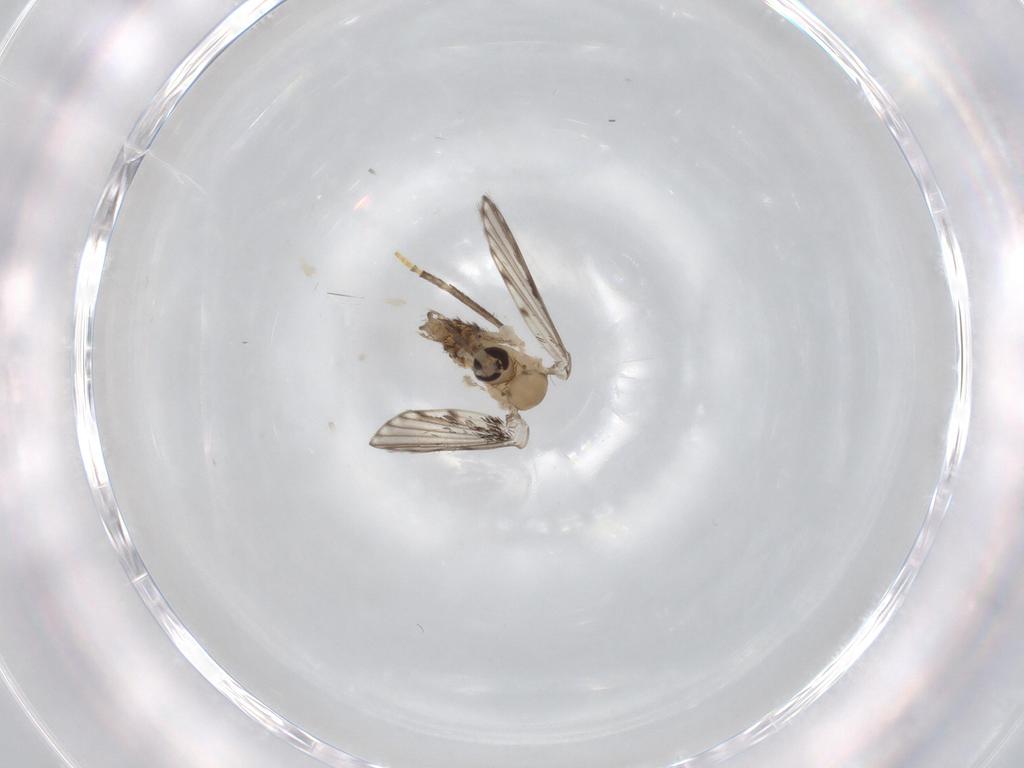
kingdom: Animalia
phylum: Arthropoda
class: Insecta
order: Diptera
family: Psychodidae
